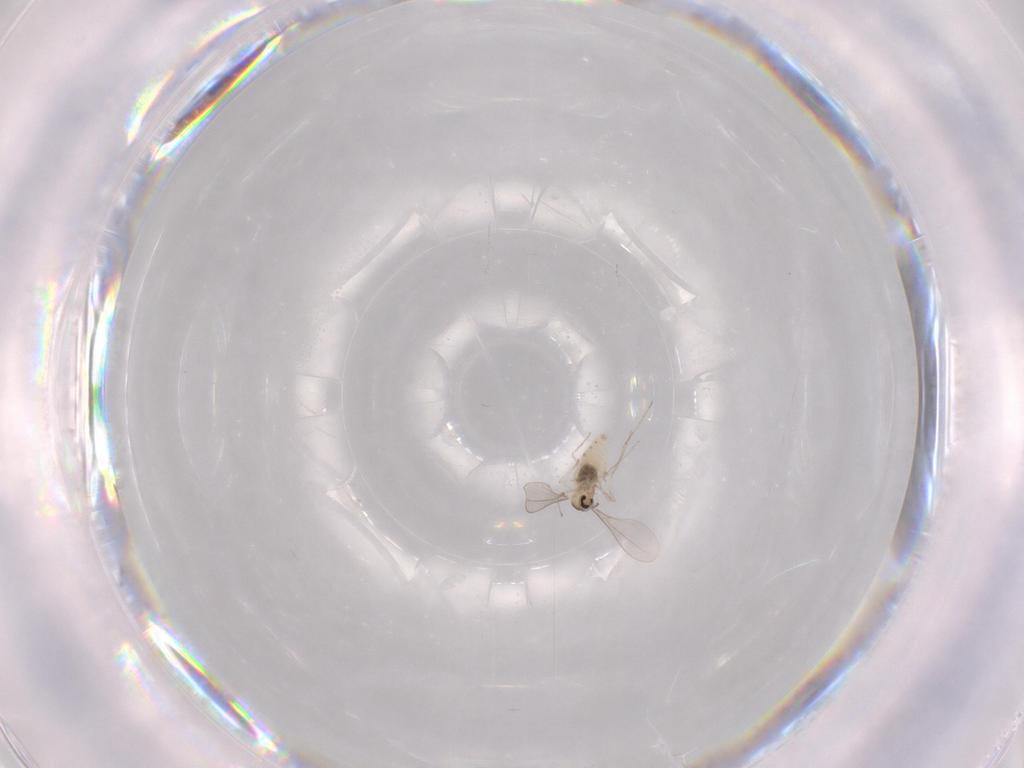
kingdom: Animalia
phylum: Arthropoda
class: Insecta
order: Diptera
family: Cecidomyiidae
